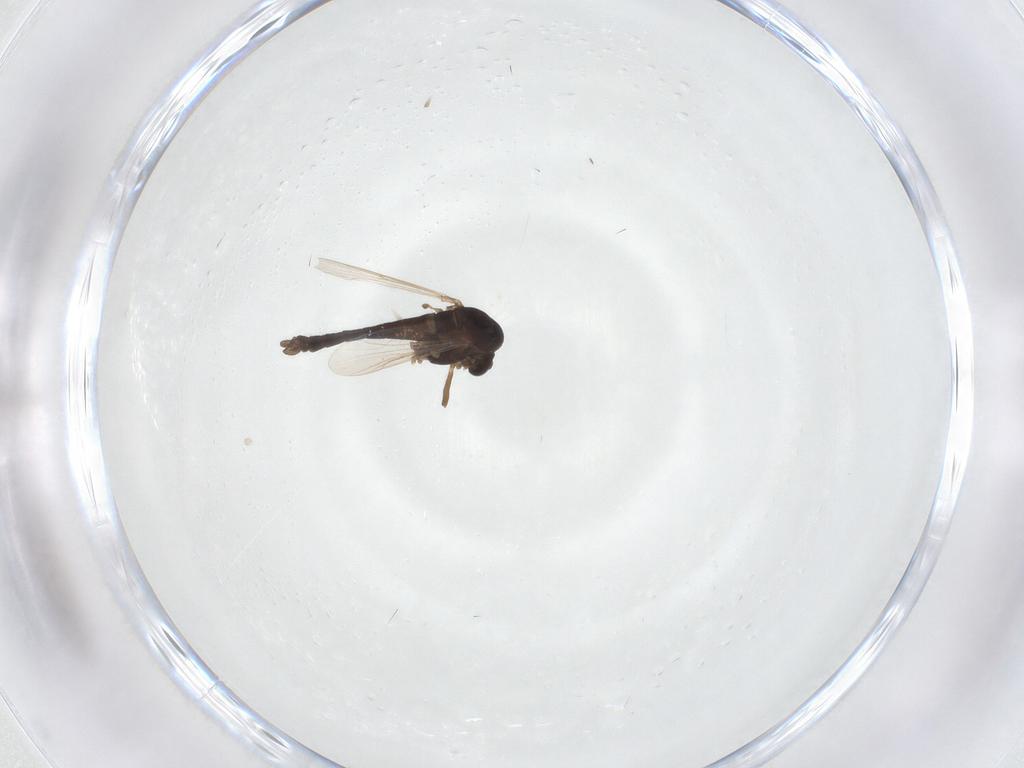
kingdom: Animalia
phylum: Arthropoda
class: Insecta
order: Diptera
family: Chironomidae
